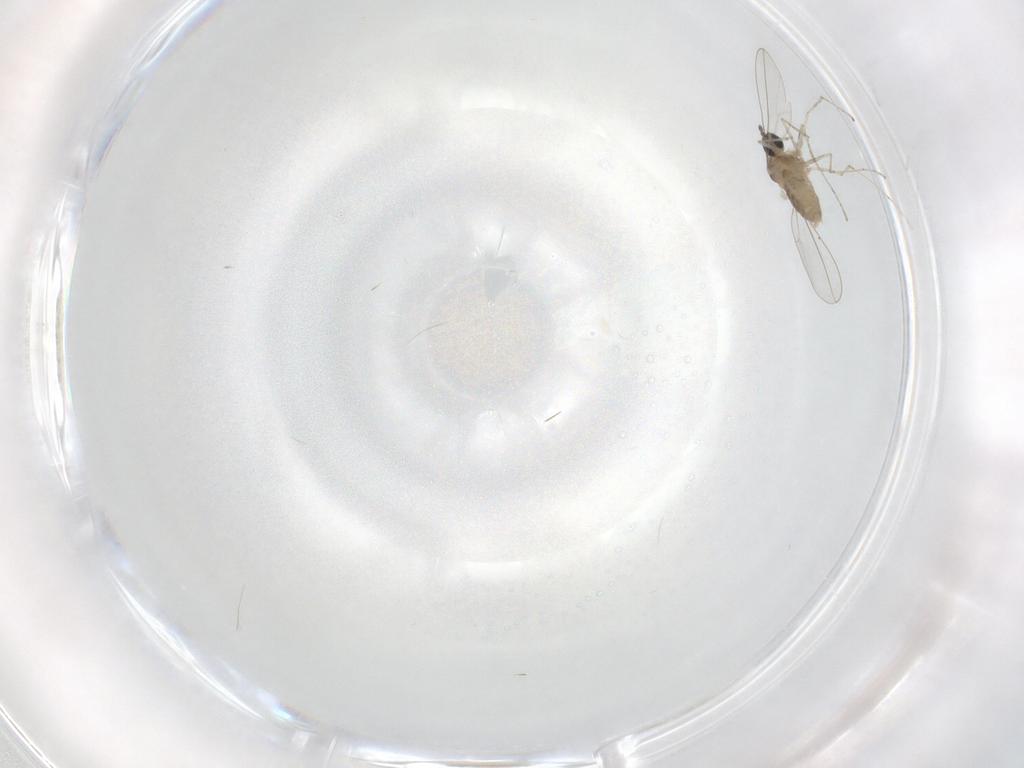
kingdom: Animalia
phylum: Arthropoda
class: Insecta
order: Diptera
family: Cecidomyiidae
